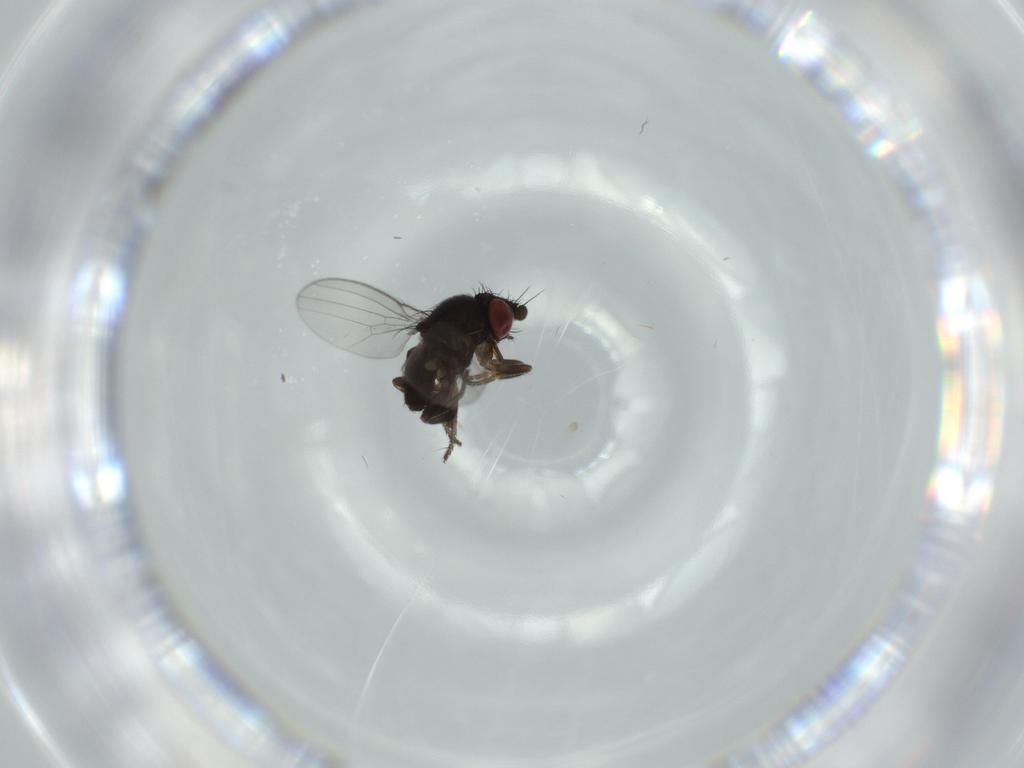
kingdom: Animalia
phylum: Arthropoda
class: Insecta
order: Diptera
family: Milichiidae
